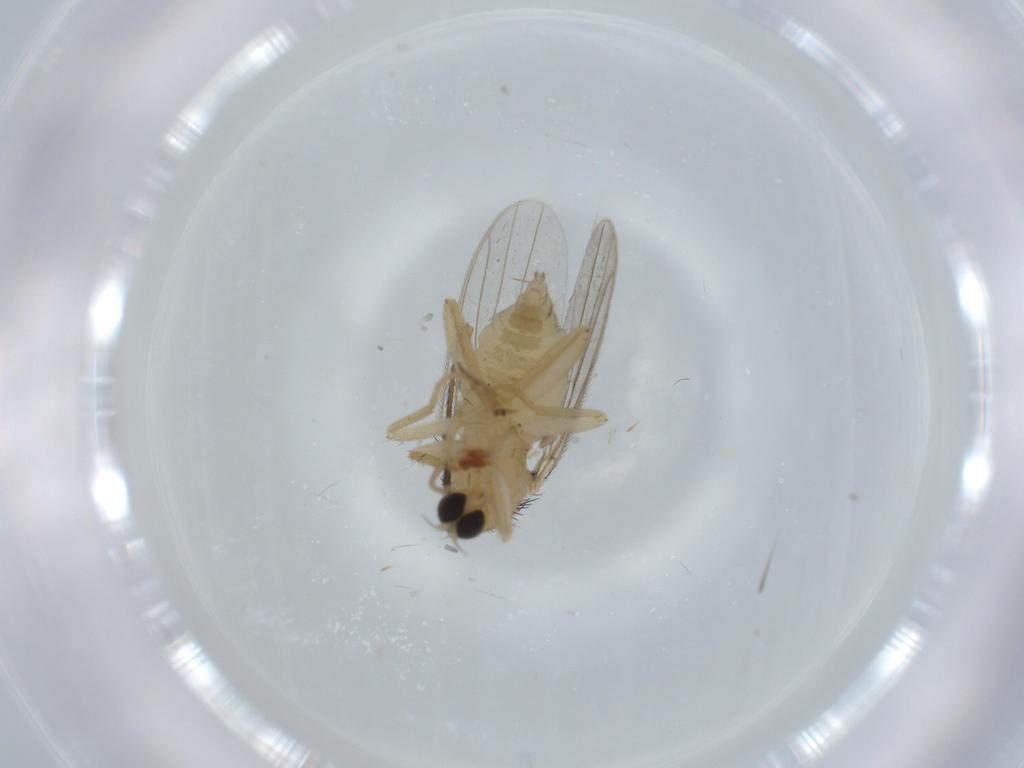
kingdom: Animalia
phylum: Arthropoda
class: Insecta
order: Diptera
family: Hybotidae
